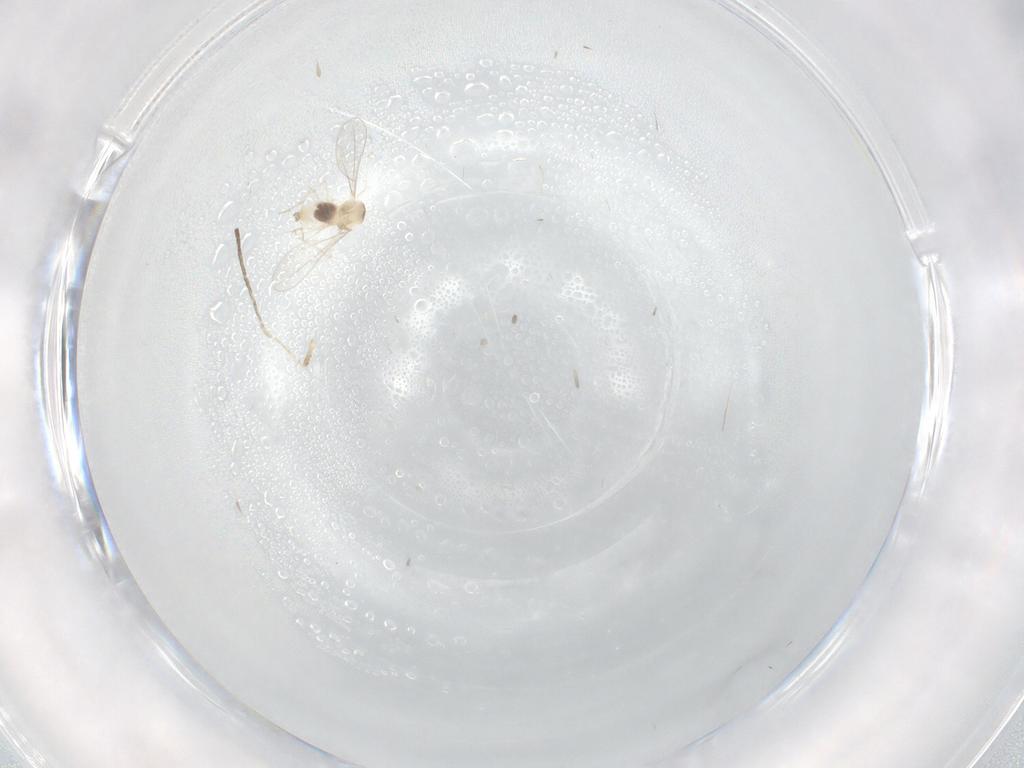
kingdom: Animalia
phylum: Arthropoda
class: Insecta
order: Diptera
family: Cecidomyiidae
